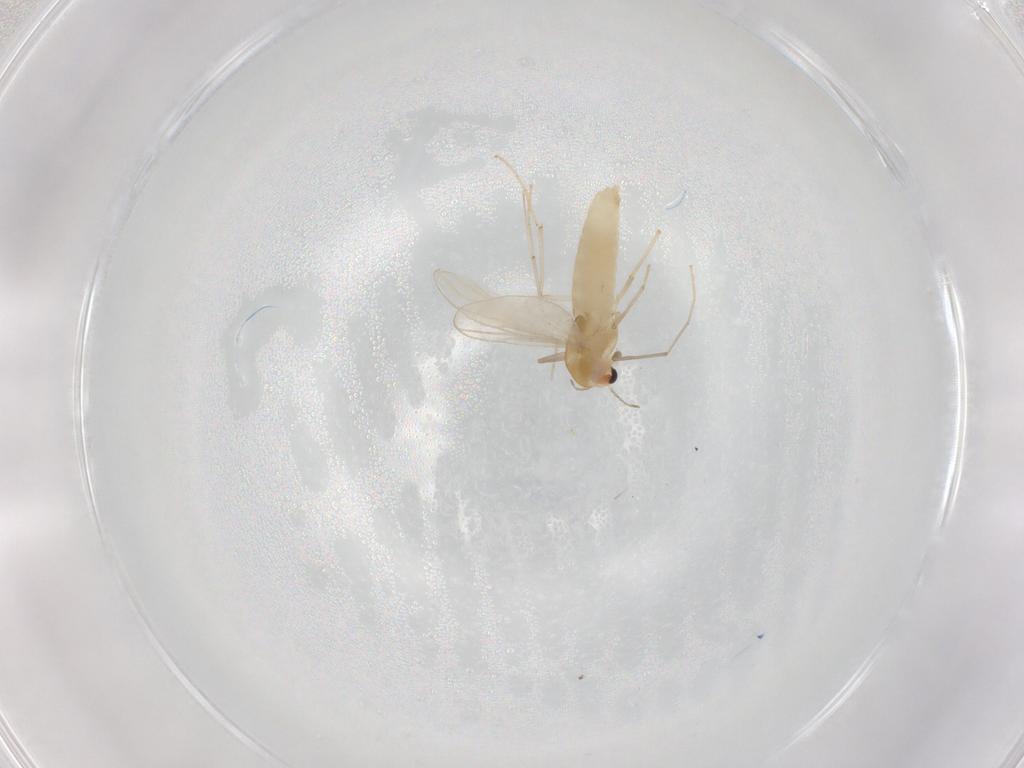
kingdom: Animalia
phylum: Arthropoda
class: Insecta
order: Diptera
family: Chironomidae
